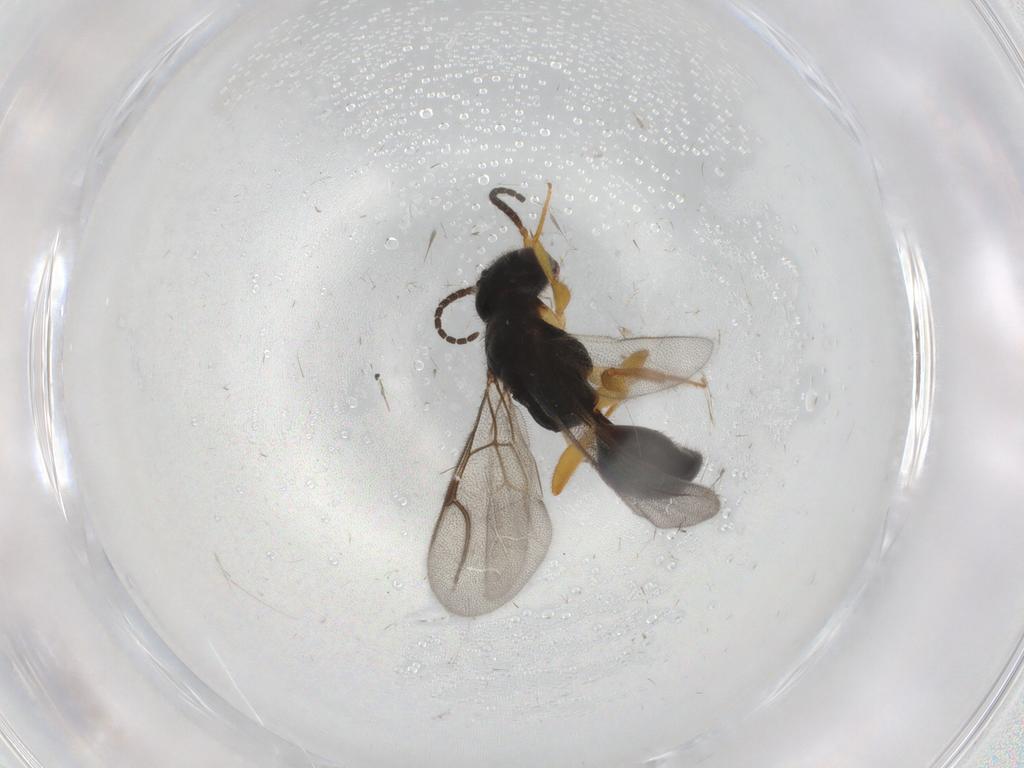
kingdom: Animalia
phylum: Arthropoda
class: Insecta
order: Hymenoptera
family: Bethylidae
